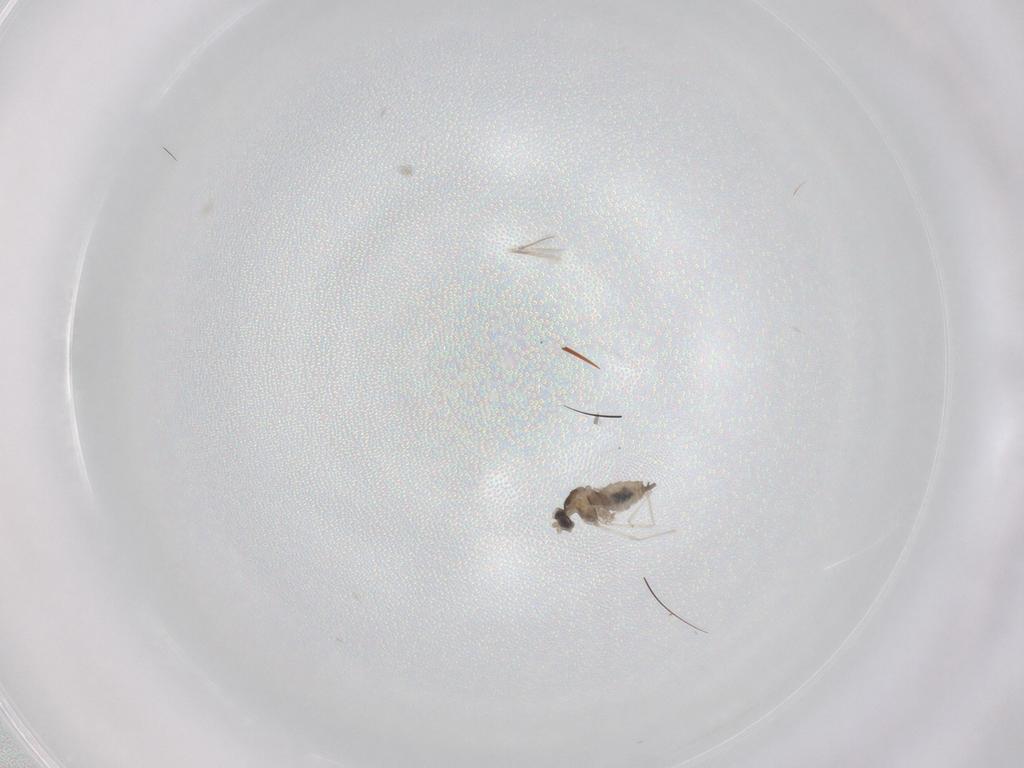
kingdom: Animalia
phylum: Arthropoda
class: Insecta
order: Diptera
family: Cecidomyiidae
